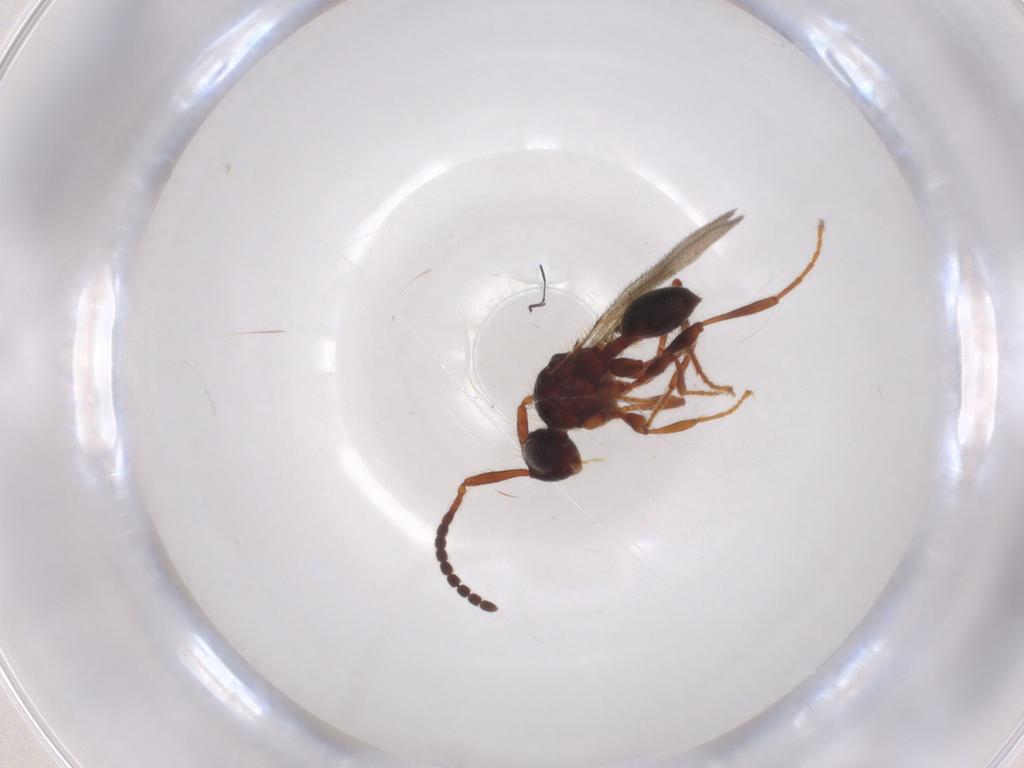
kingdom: Animalia
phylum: Arthropoda
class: Insecta
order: Hymenoptera
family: Diapriidae
